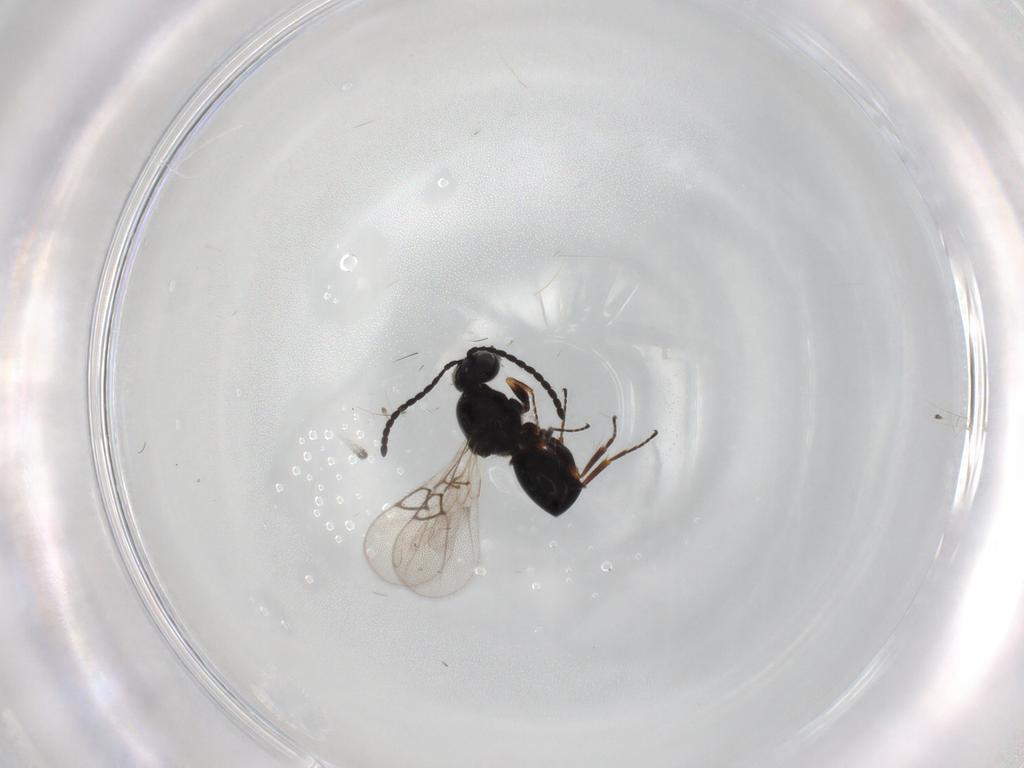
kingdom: Animalia
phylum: Arthropoda
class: Insecta
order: Hymenoptera
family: Figitidae
